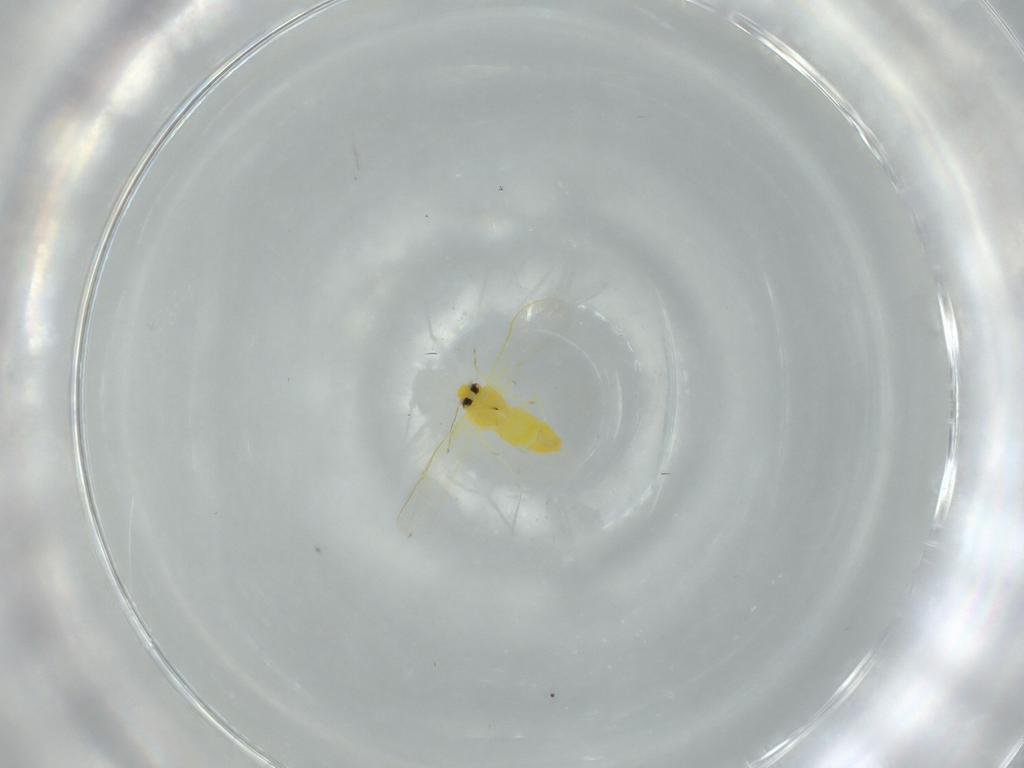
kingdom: Animalia
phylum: Arthropoda
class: Insecta
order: Hemiptera
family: Aleyrodidae
